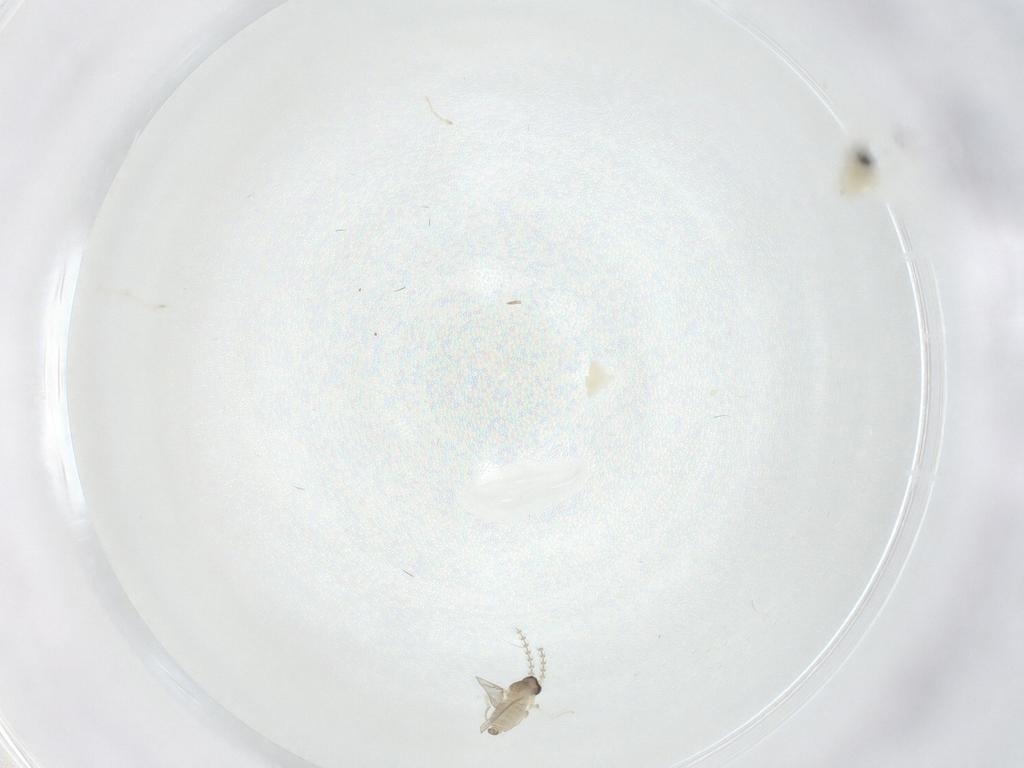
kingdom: Animalia
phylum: Arthropoda
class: Insecta
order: Diptera
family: Cecidomyiidae
